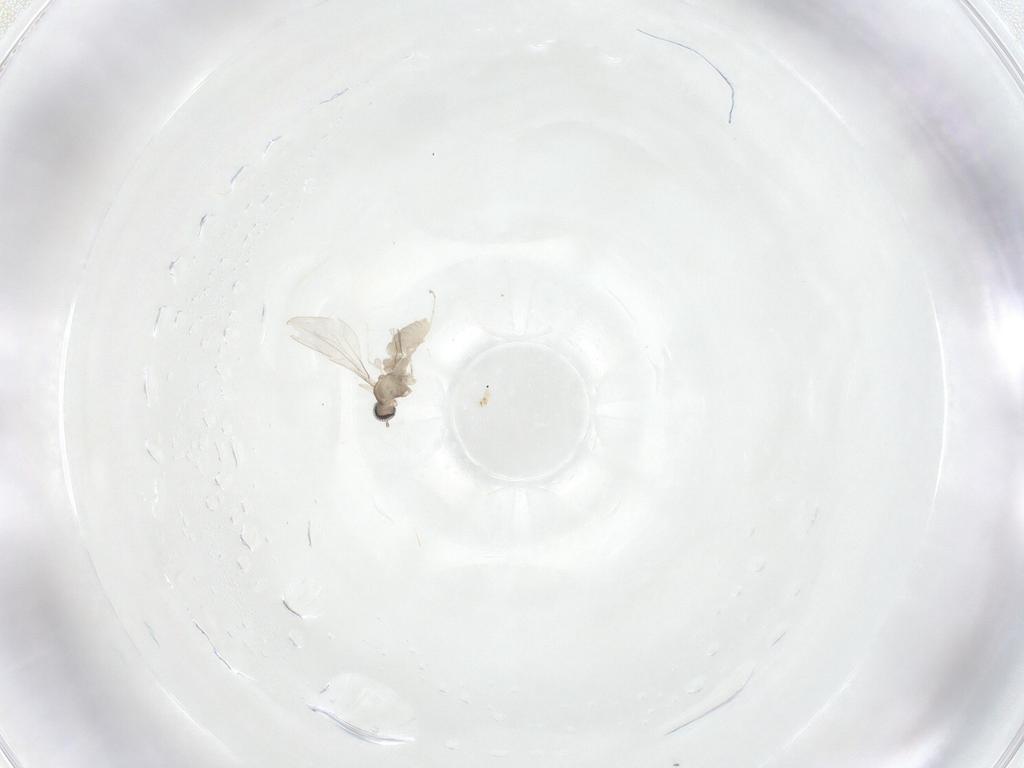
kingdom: Animalia
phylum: Arthropoda
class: Insecta
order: Diptera
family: Cecidomyiidae
